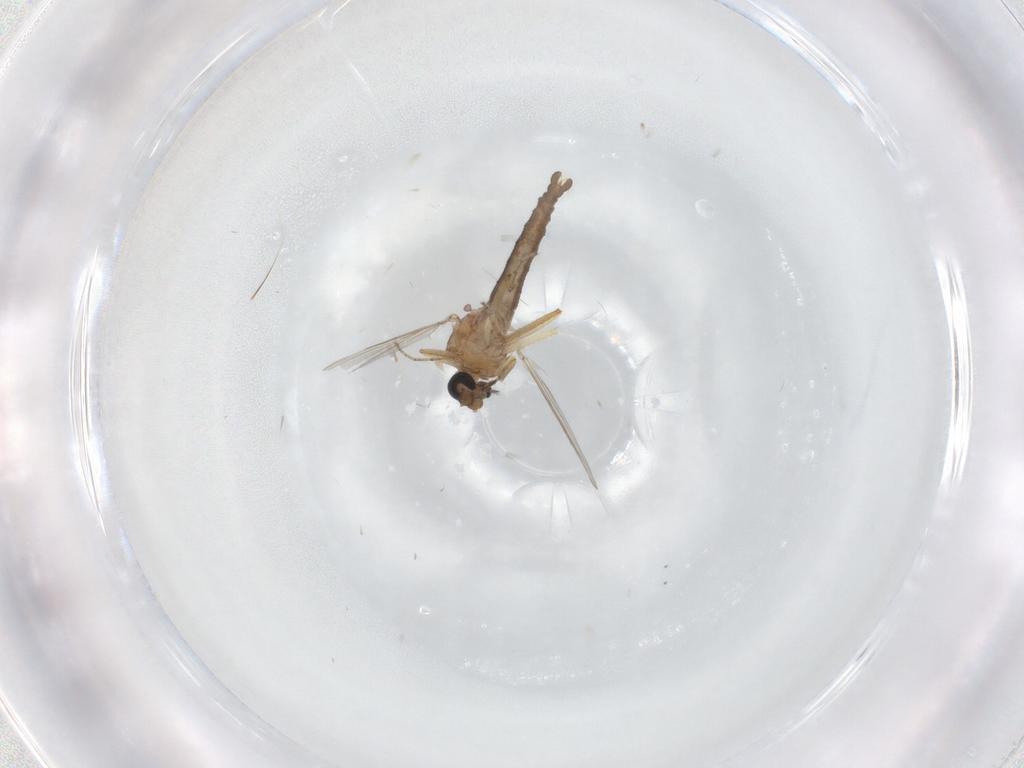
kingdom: Animalia
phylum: Arthropoda
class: Insecta
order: Diptera
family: Ceratopogonidae
